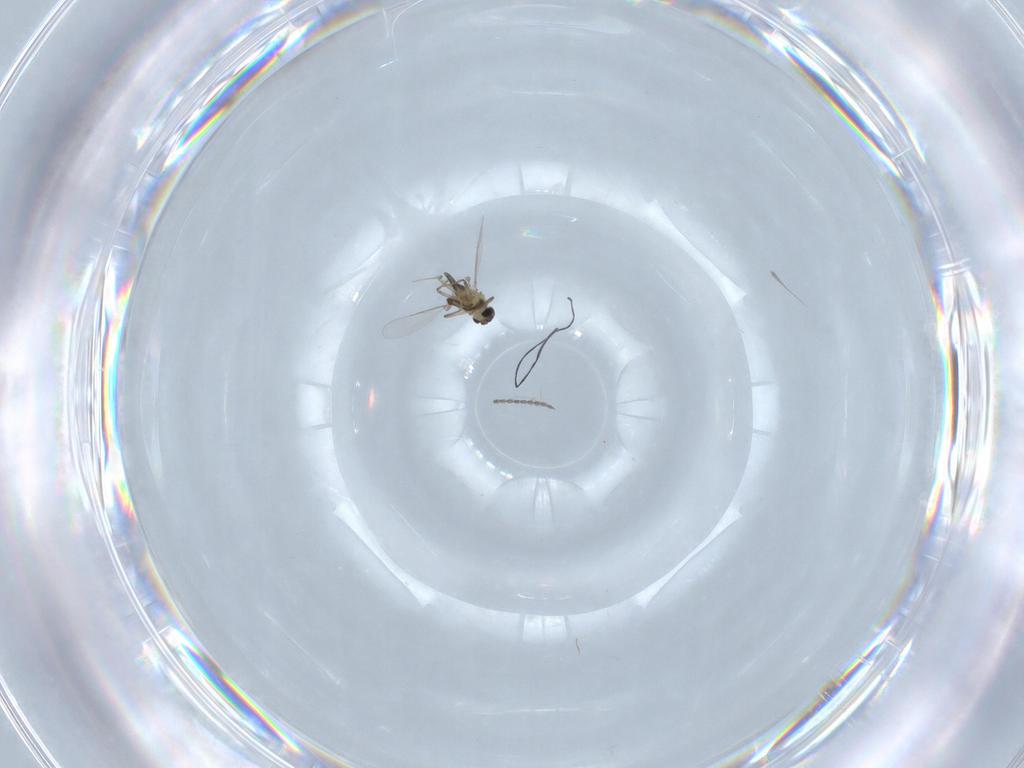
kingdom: Animalia
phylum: Arthropoda
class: Insecta
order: Diptera
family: Chironomidae
